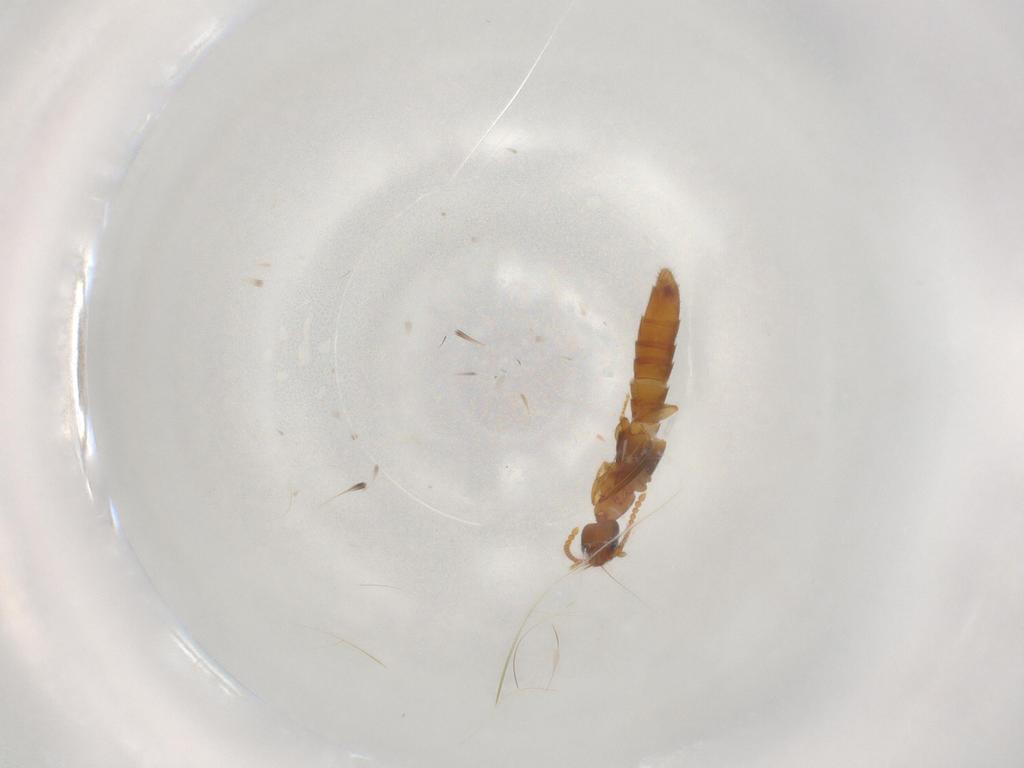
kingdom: Animalia
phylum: Arthropoda
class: Insecta
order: Coleoptera
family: Staphylinidae
